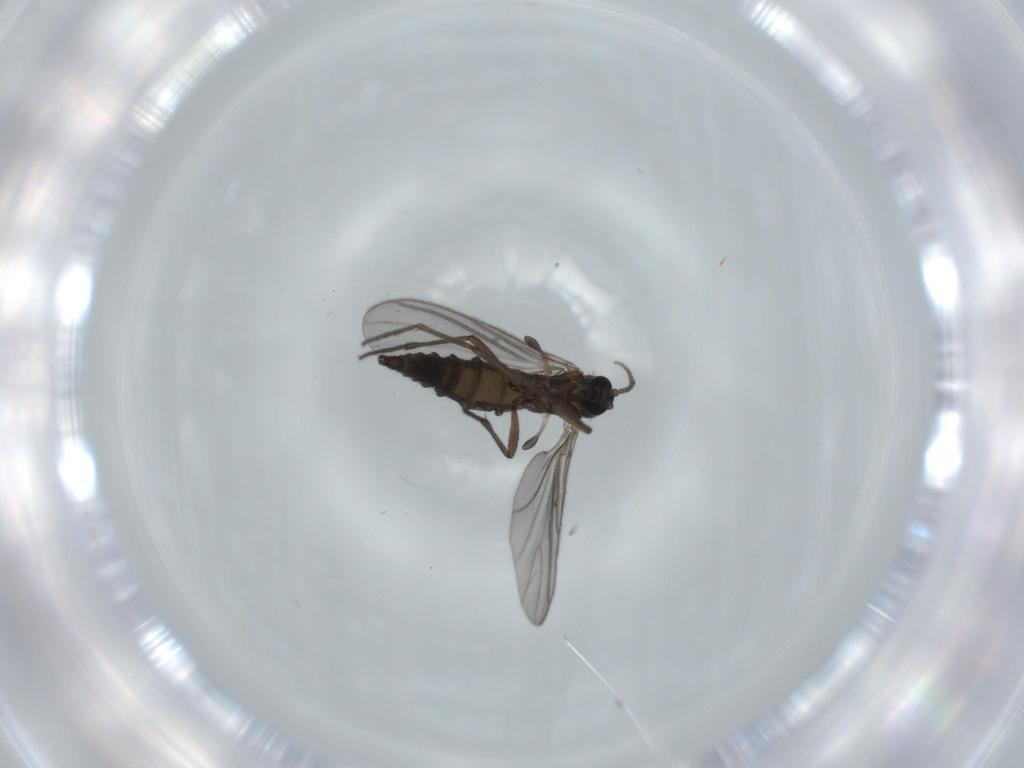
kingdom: Animalia
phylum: Arthropoda
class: Insecta
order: Diptera
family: Sciaridae
